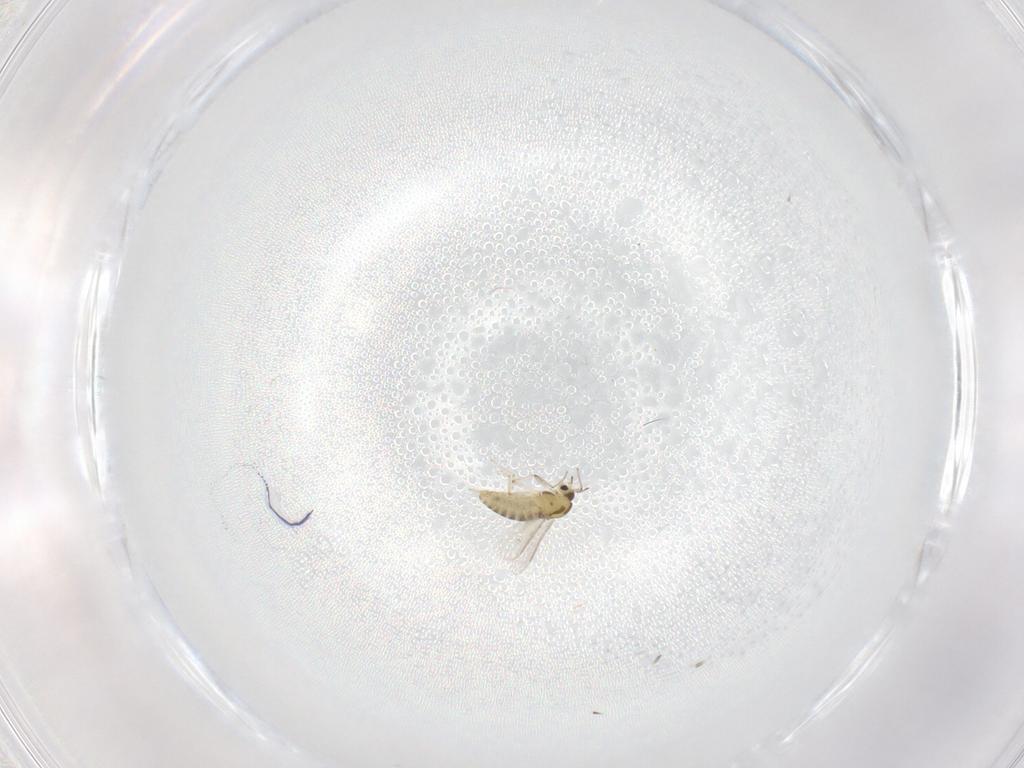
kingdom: Animalia
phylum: Arthropoda
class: Insecta
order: Diptera
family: Chironomidae
